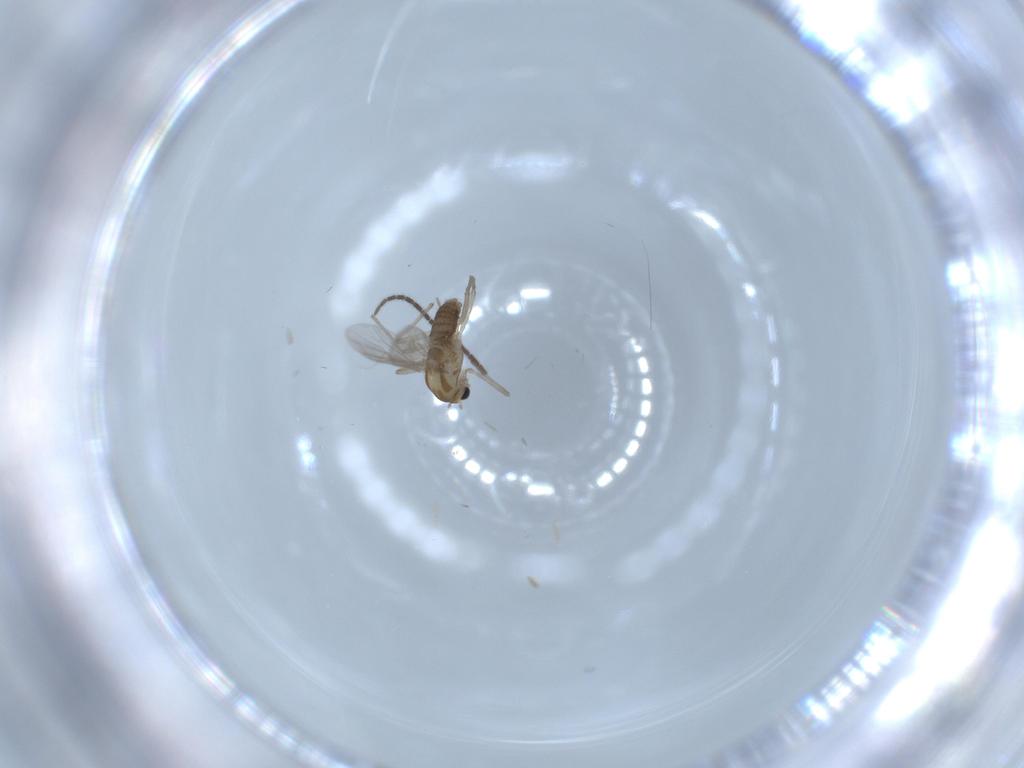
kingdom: Animalia
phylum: Arthropoda
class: Insecta
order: Diptera
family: Chironomidae
